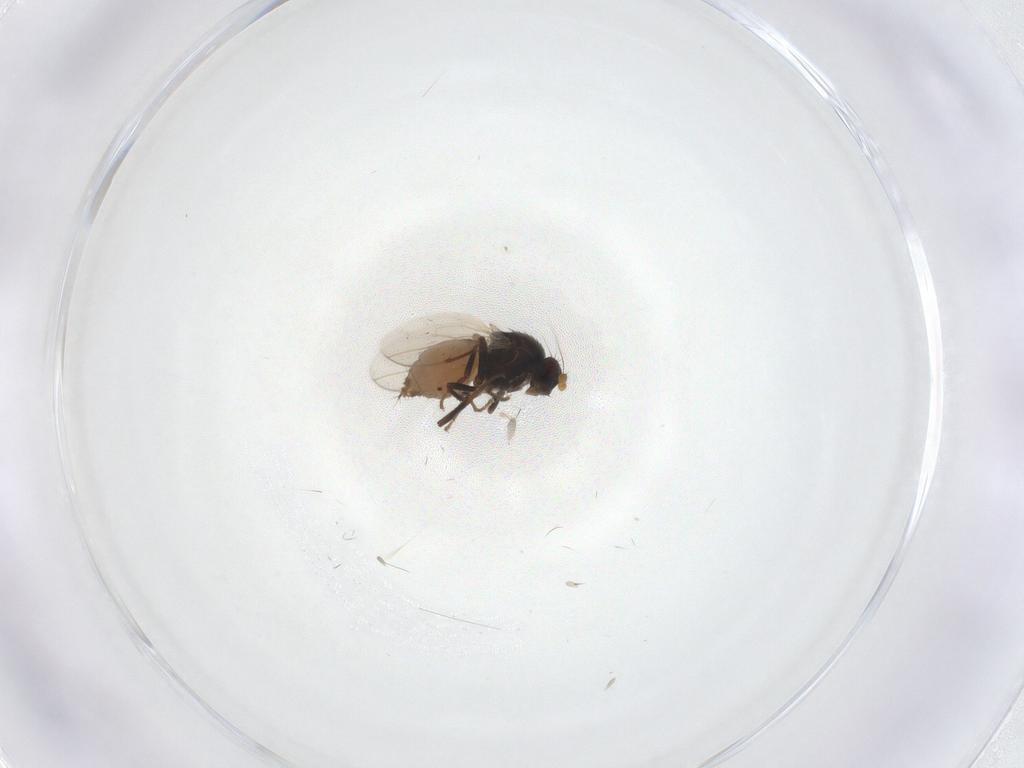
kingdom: Animalia
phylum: Arthropoda
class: Insecta
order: Diptera
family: Sphaeroceridae
